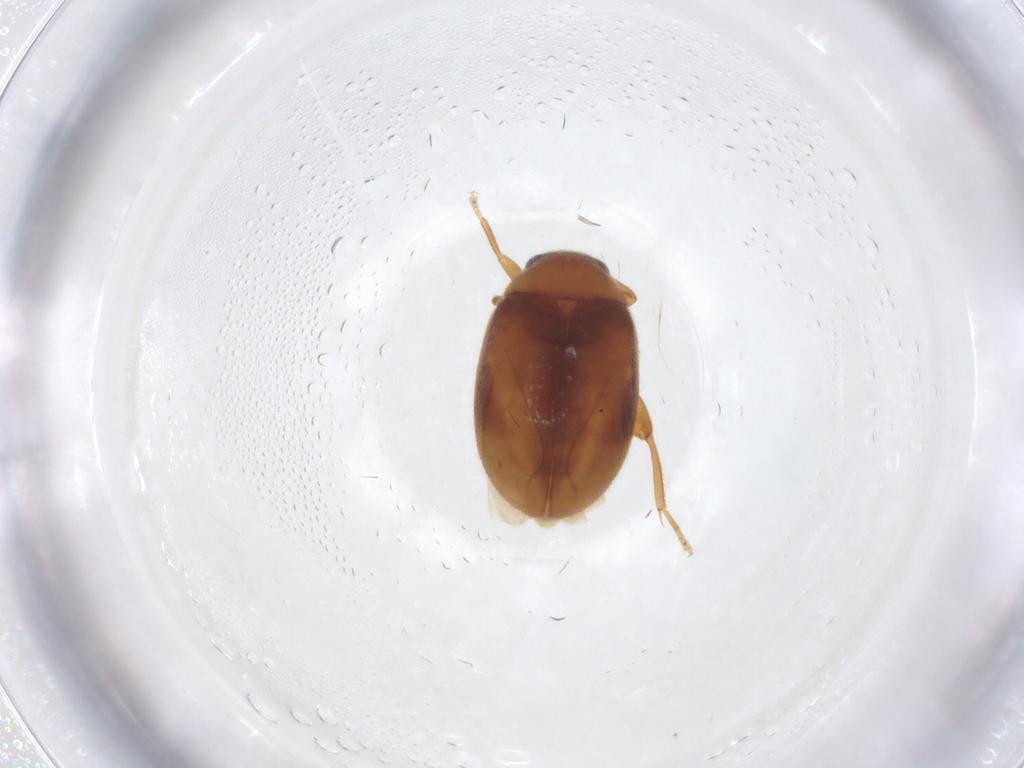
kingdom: Animalia
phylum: Arthropoda
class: Insecta
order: Coleoptera
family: Scirtidae
